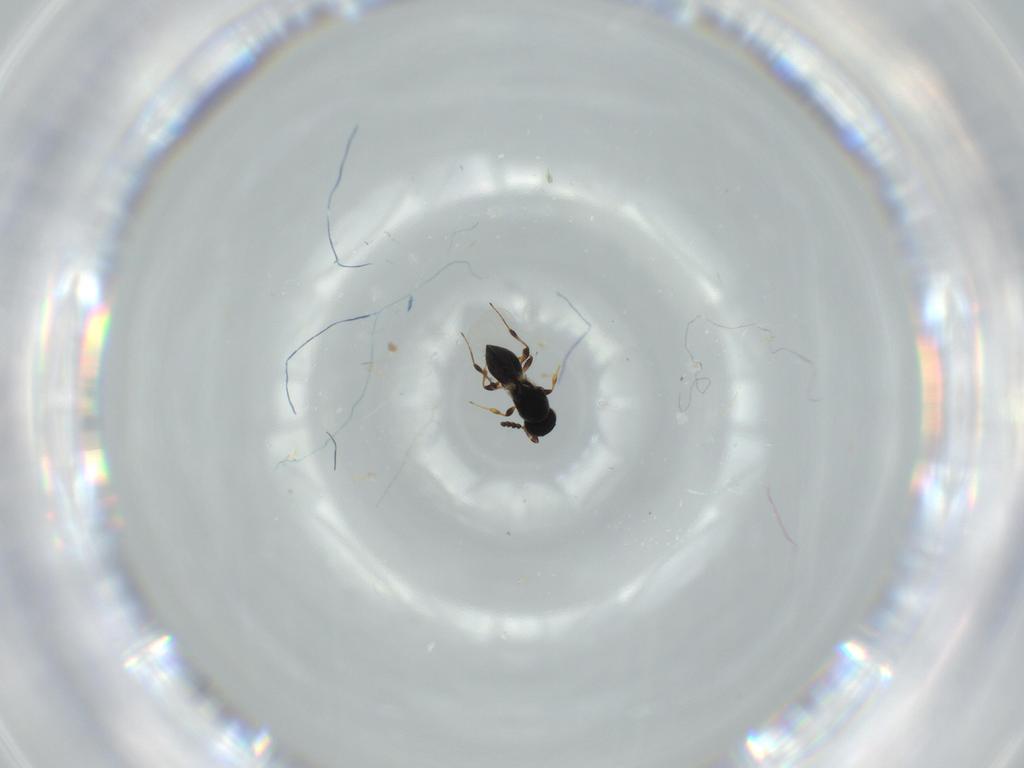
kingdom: Animalia
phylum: Arthropoda
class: Insecta
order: Hymenoptera
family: Platygastridae
